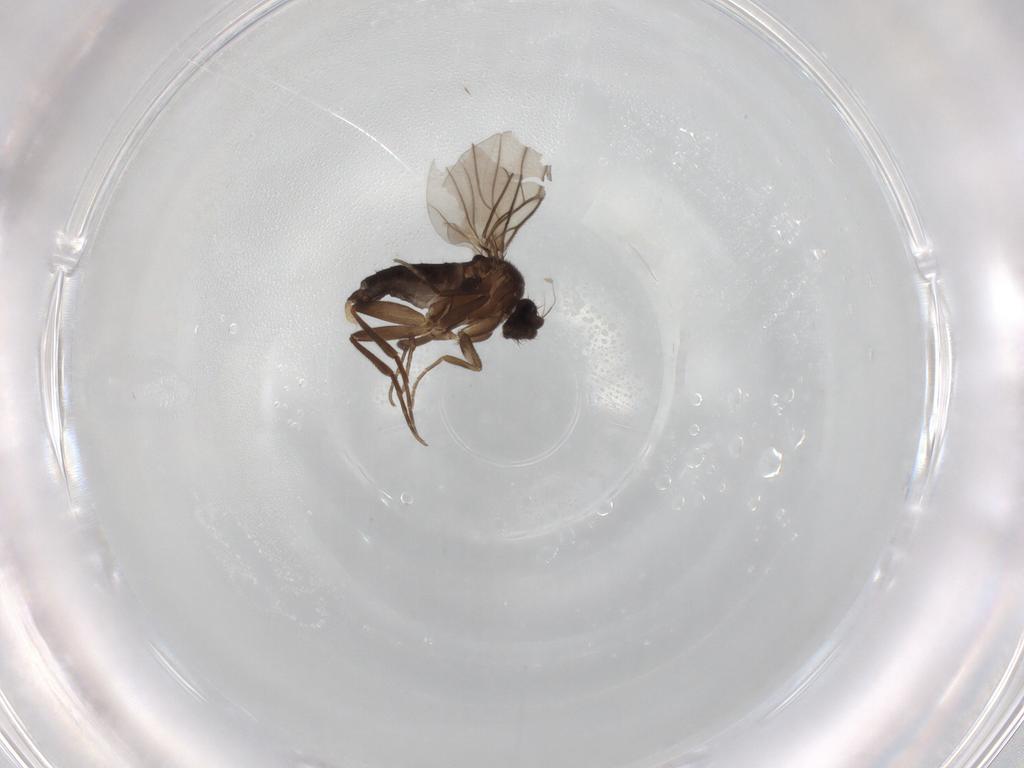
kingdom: Animalia
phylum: Arthropoda
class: Insecta
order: Diptera
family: Phoridae
